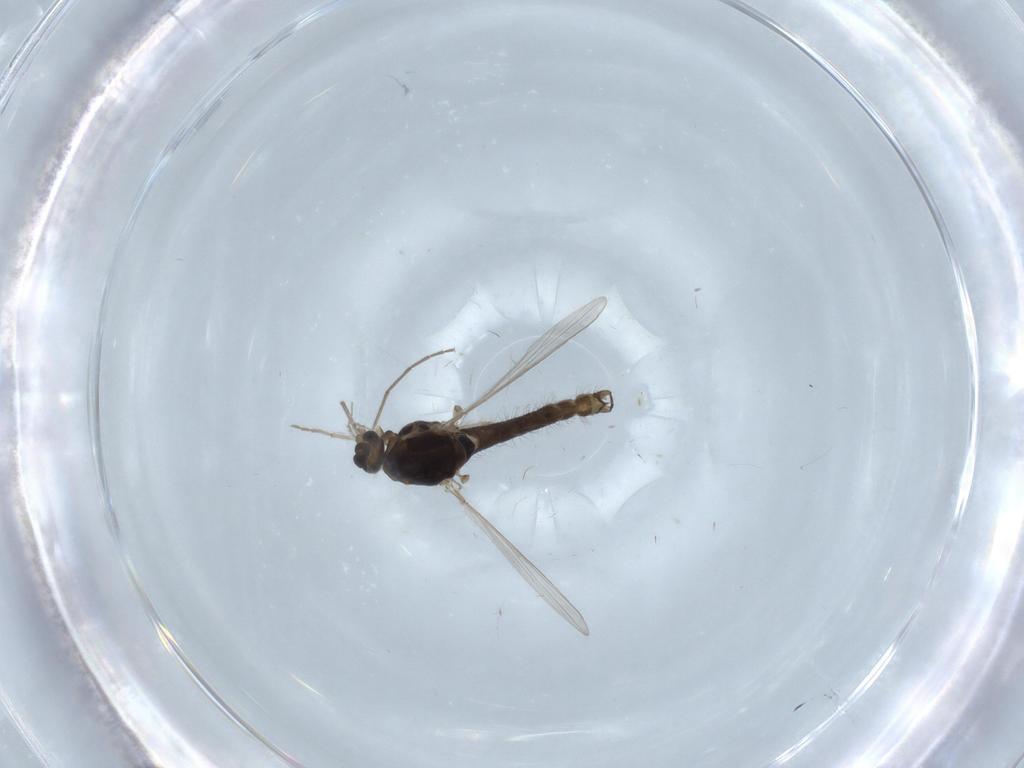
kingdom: Animalia
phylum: Arthropoda
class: Insecta
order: Diptera
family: Chironomidae
